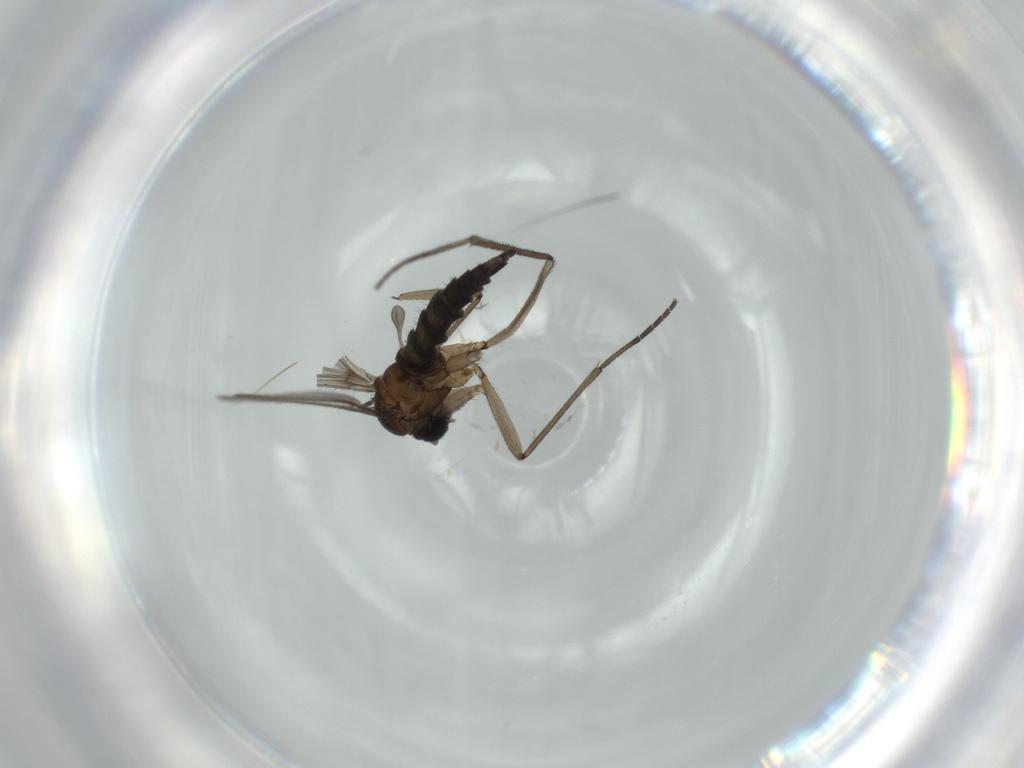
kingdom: Animalia
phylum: Arthropoda
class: Insecta
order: Diptera
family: Sciaridae
